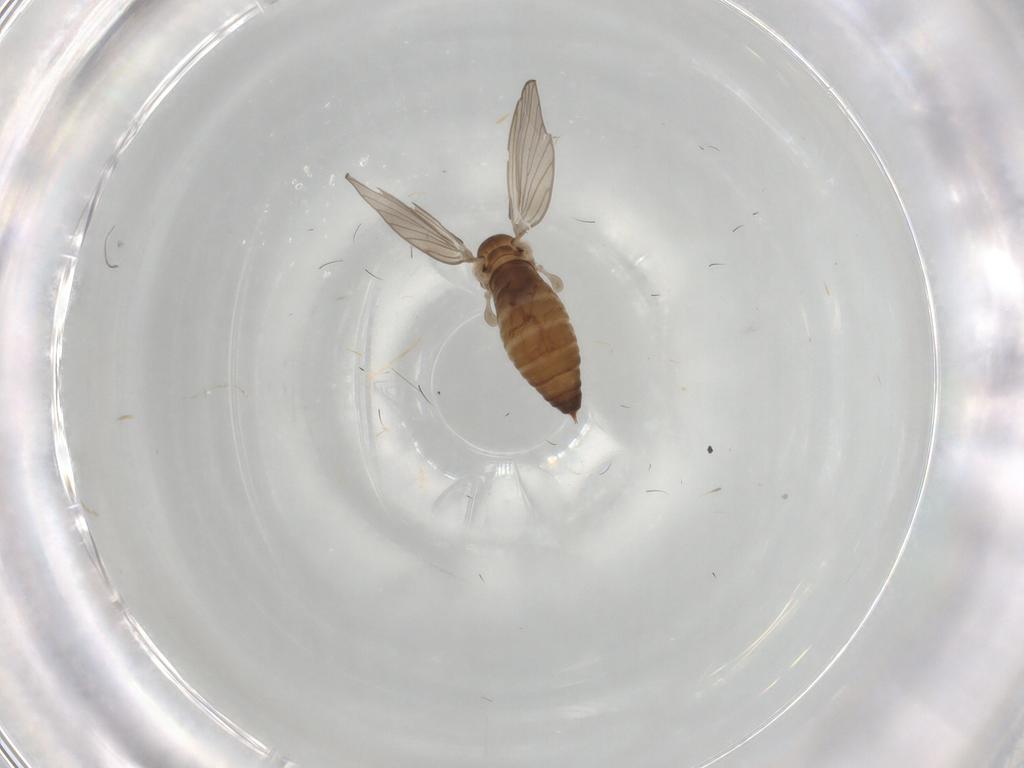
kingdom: Animalia
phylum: Arthropoda
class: Insecta
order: Diptera
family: Psychodidae
